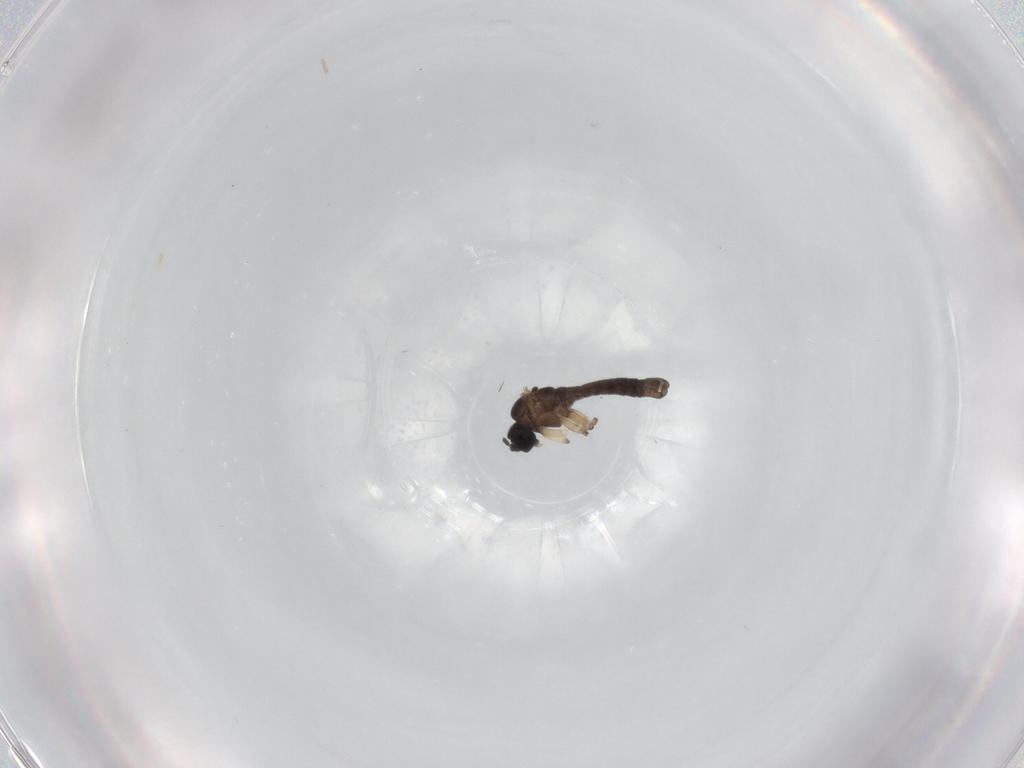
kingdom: Animalia
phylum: Arthropoda
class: Insecta
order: Diptera
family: Sciaridae
